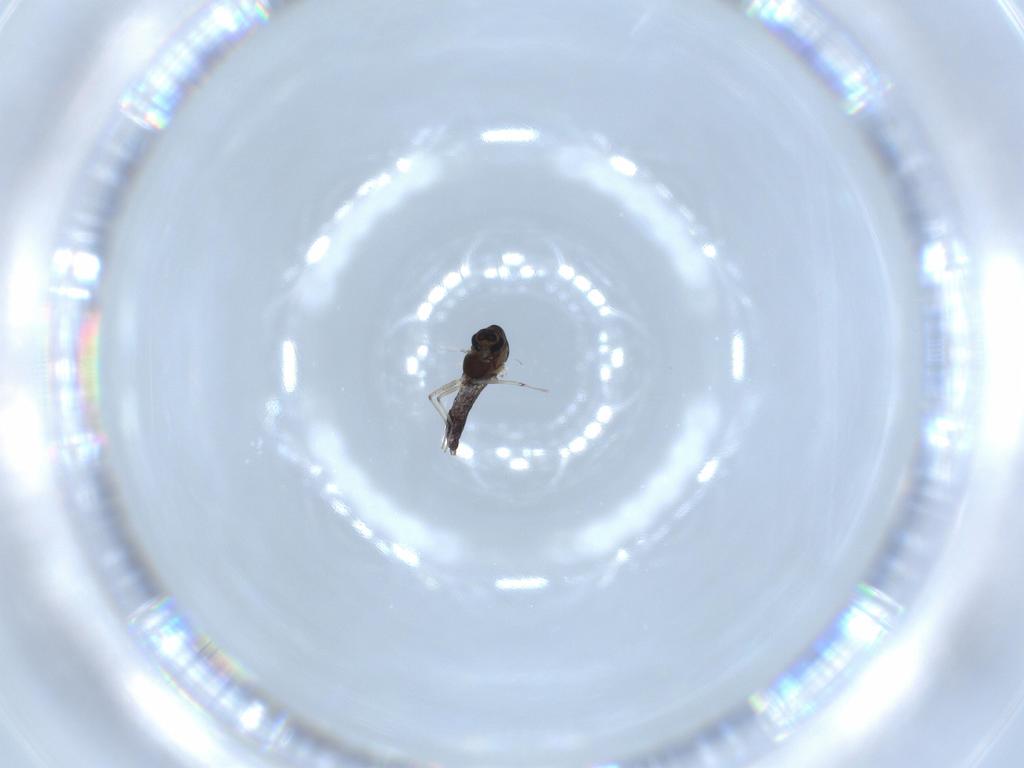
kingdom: Animalia
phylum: Arthropoda
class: Insecta
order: Diptera
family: Chironomidae
